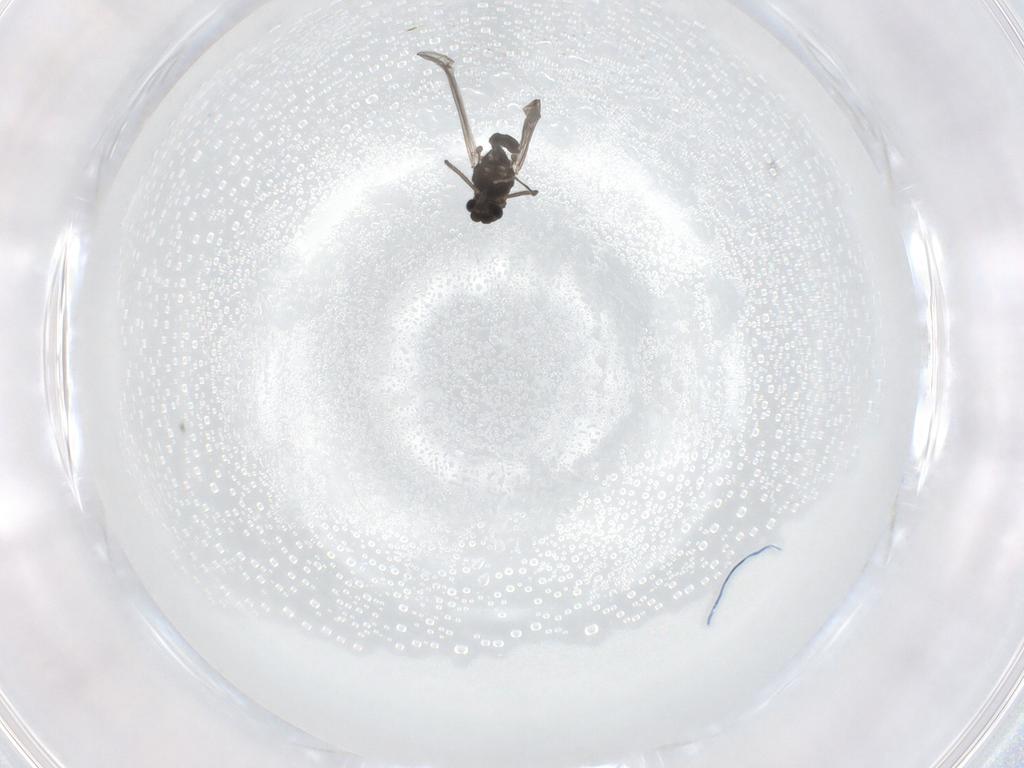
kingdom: Animalia
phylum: Arthropoda
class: Insecta
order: Diptera
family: Chironomidae
